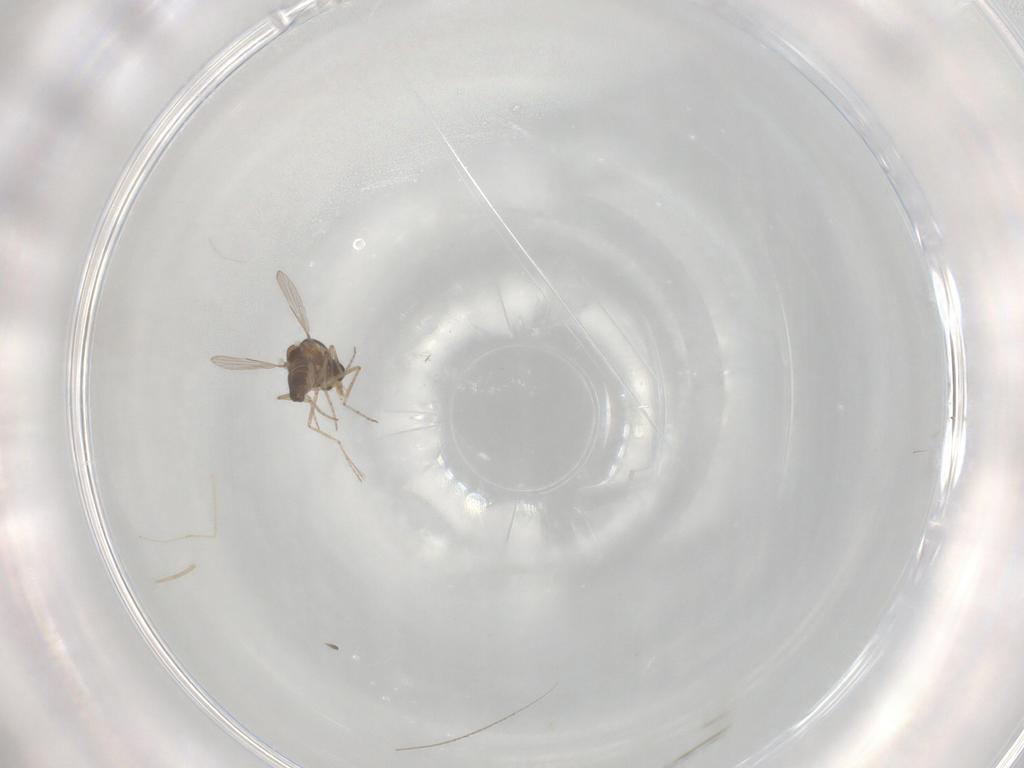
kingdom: Animalia
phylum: Arthropoda
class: Insecta
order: Diptera
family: Ceratopogonidae
